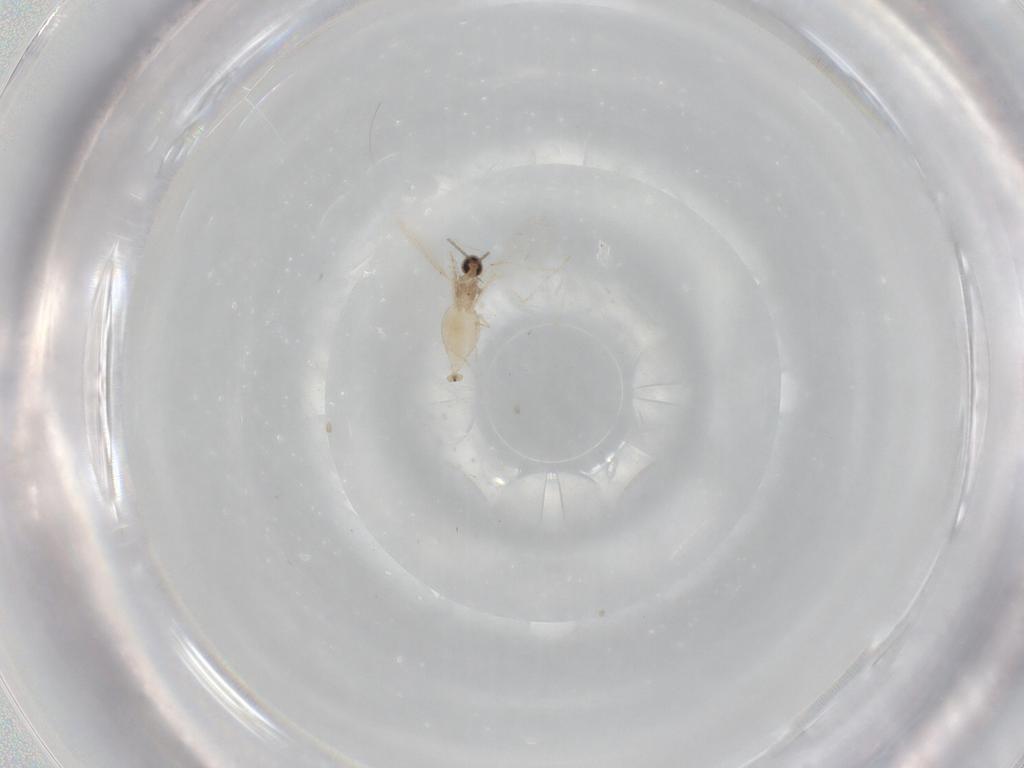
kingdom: Animalia
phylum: Arthropoda
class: Insecta
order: Diptera
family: Cecidomyiidae
